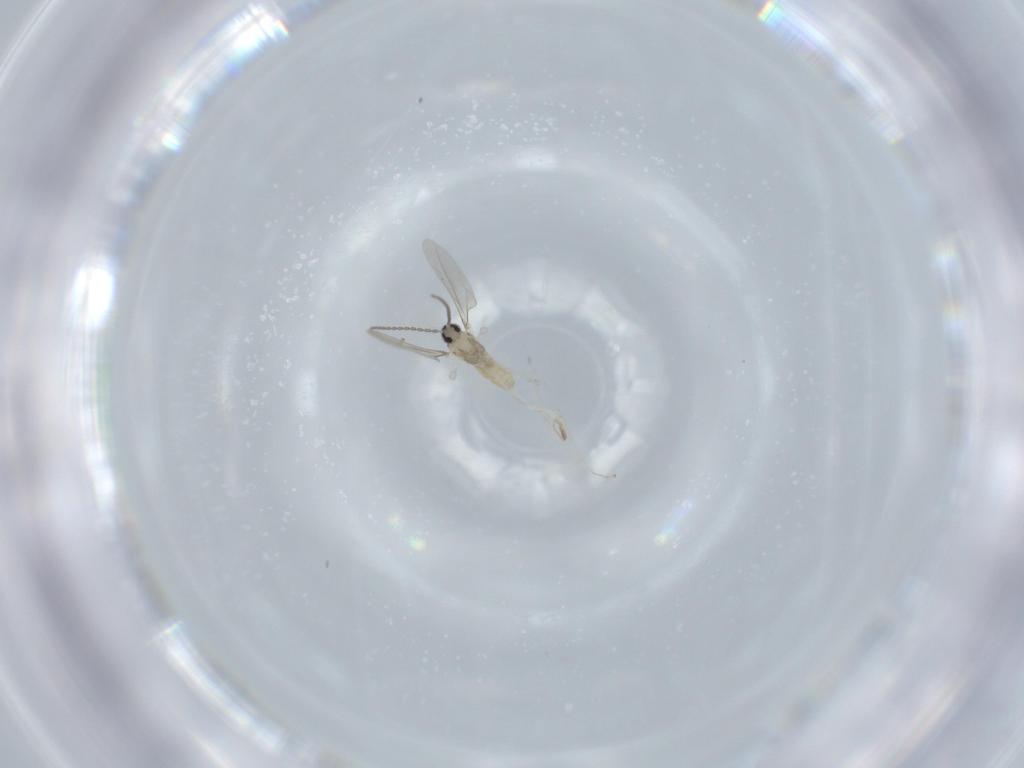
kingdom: Animalia
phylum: Arthropoda
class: Insecta
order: Diptera
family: Cecidomyiidae
